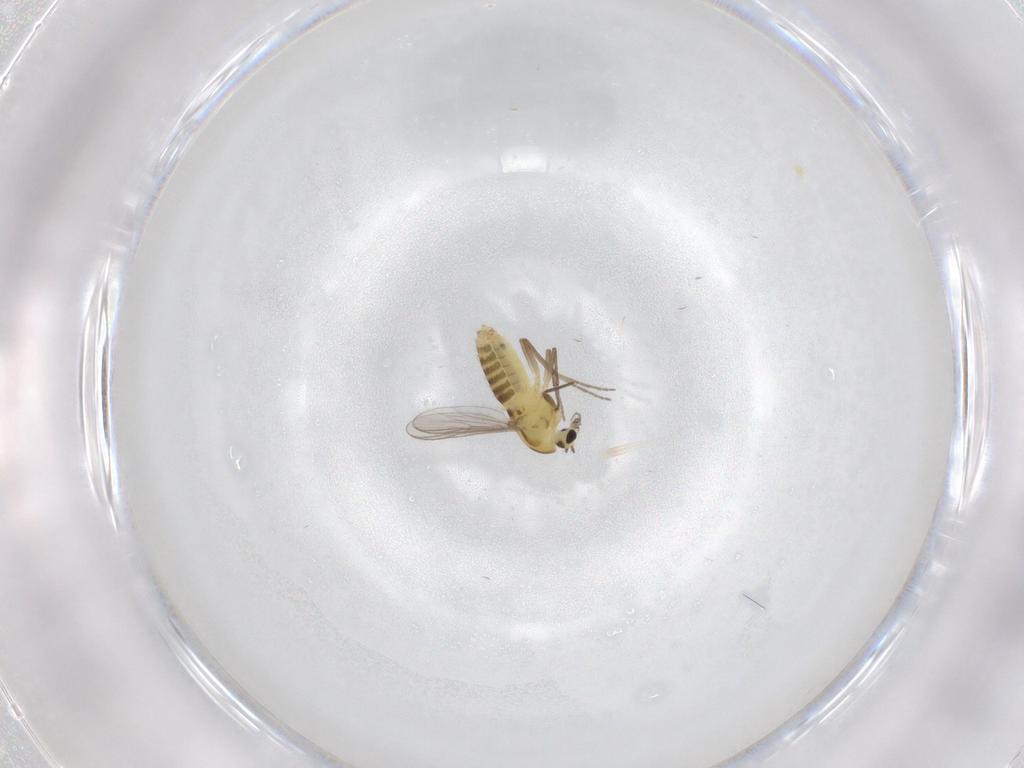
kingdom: Animalia
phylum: Arthropoda
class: Insecta
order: Diptera
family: Chironomidae
